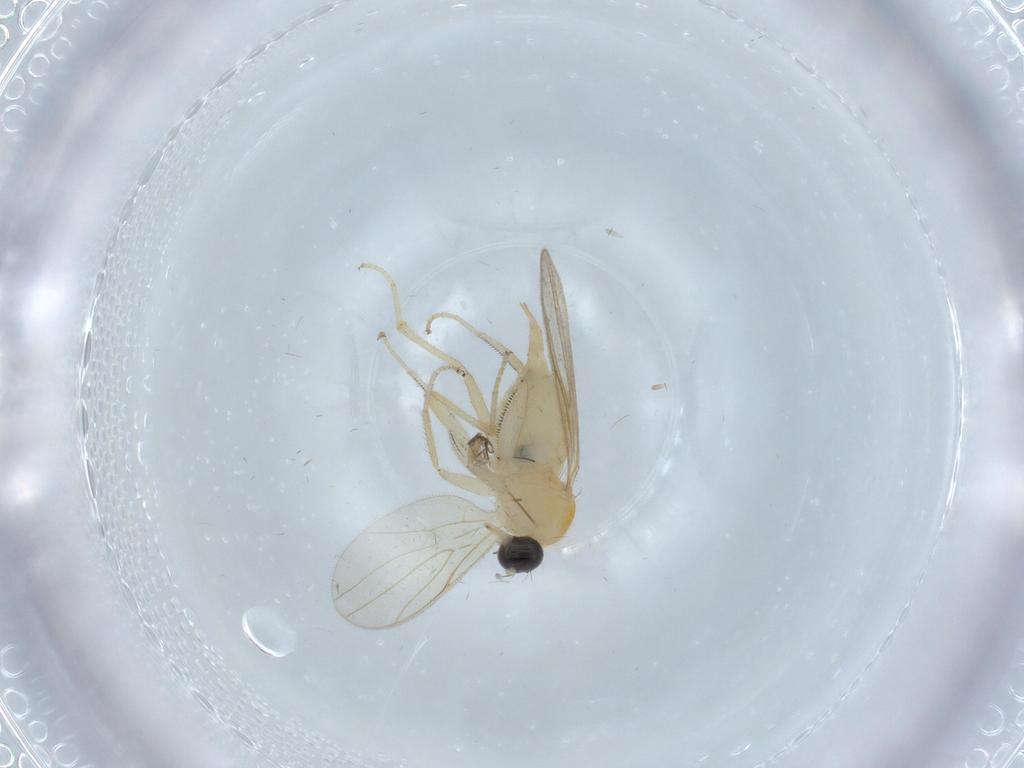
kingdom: Animalia
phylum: Arthropoda
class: Insecta
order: Diptera
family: Hybotidae
